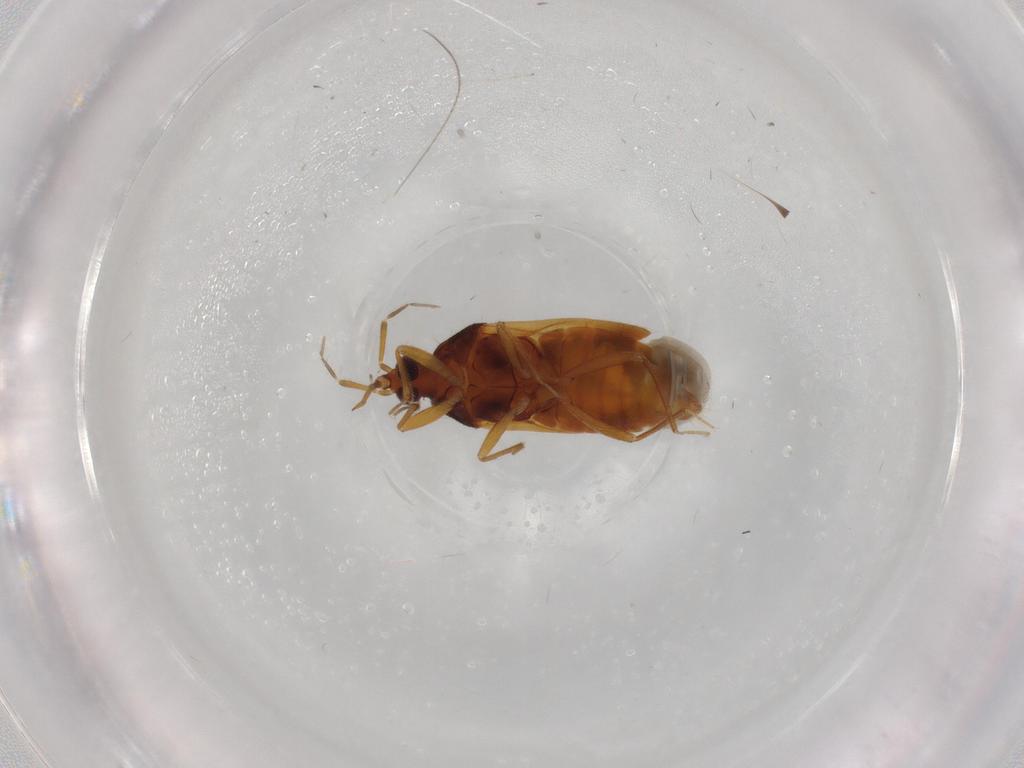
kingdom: Animalia
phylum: Arthropoda
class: Insecta
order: Hemiptera
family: Anthocoridae
